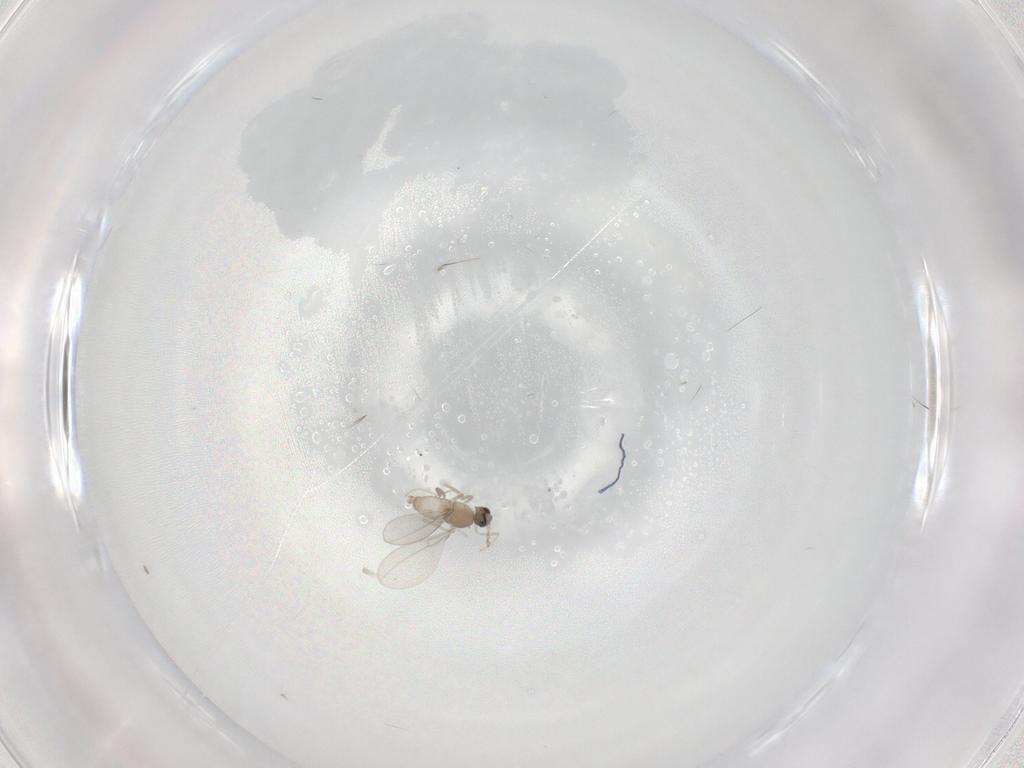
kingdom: Animalia
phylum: Arthropoda
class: Insecta
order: Diptera
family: Cecidomyiidae
